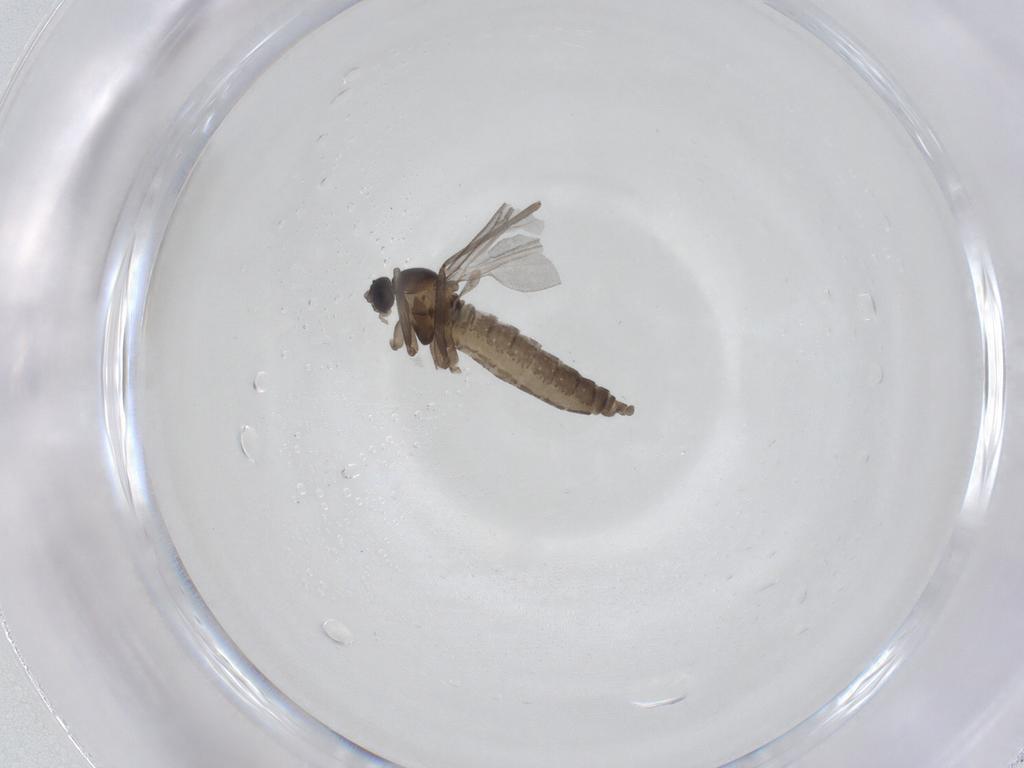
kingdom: Animalia
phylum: Arthropoda
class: Insecta
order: Diptera
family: Chironomidae
